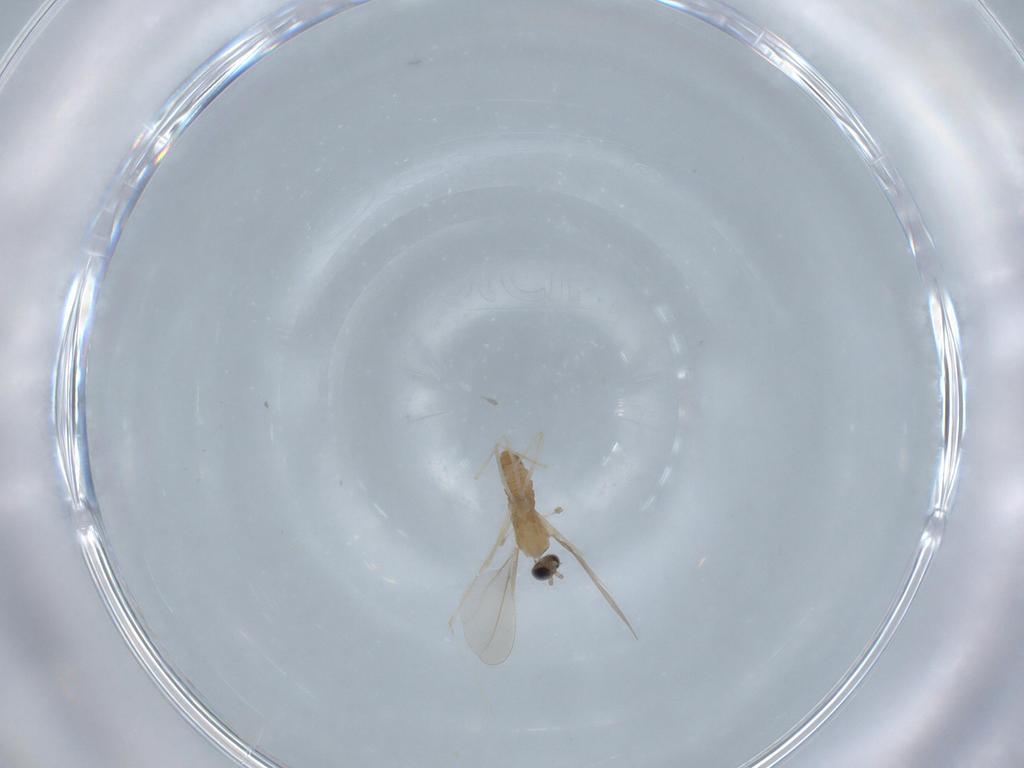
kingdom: Animalia
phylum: Arthropoda
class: Insecta
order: Diptera
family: Cecidomyiidae
